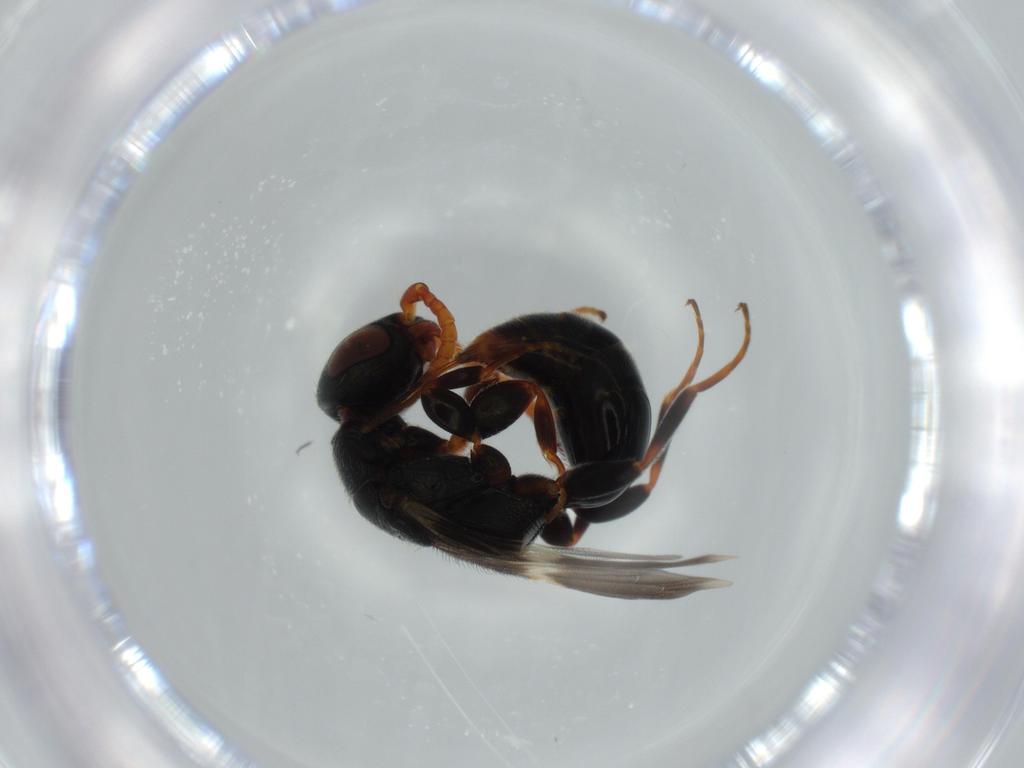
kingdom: Animalia
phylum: Arthropoda
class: Insecta
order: Hymenoptera
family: Bethylidae
